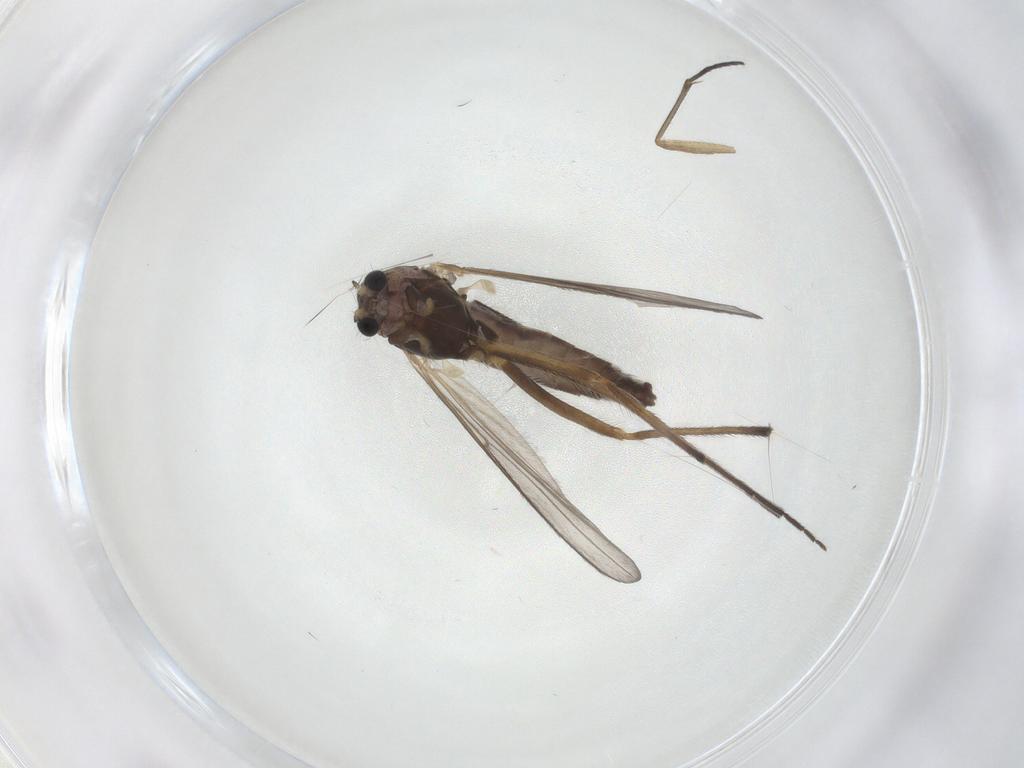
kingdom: Animalia
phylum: Arthropoda
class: Insecta
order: Diptera
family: Chironomidae
